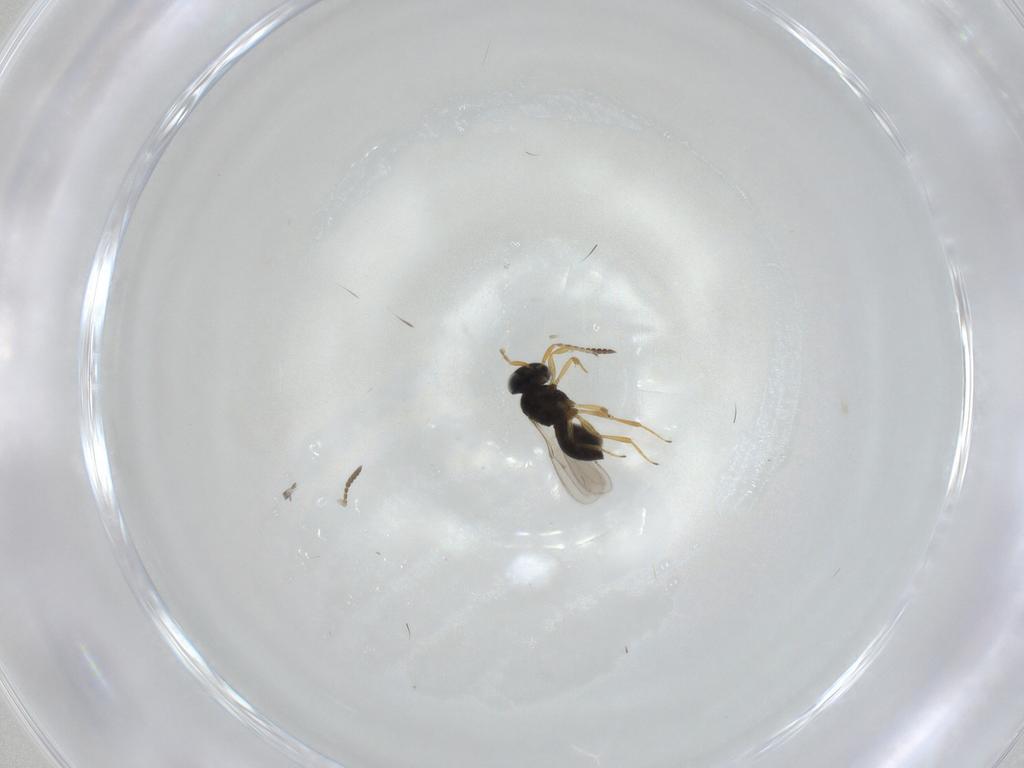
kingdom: Animalia
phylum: Arthropoda
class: Insecta
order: Hymenoptera
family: Scelionidae
